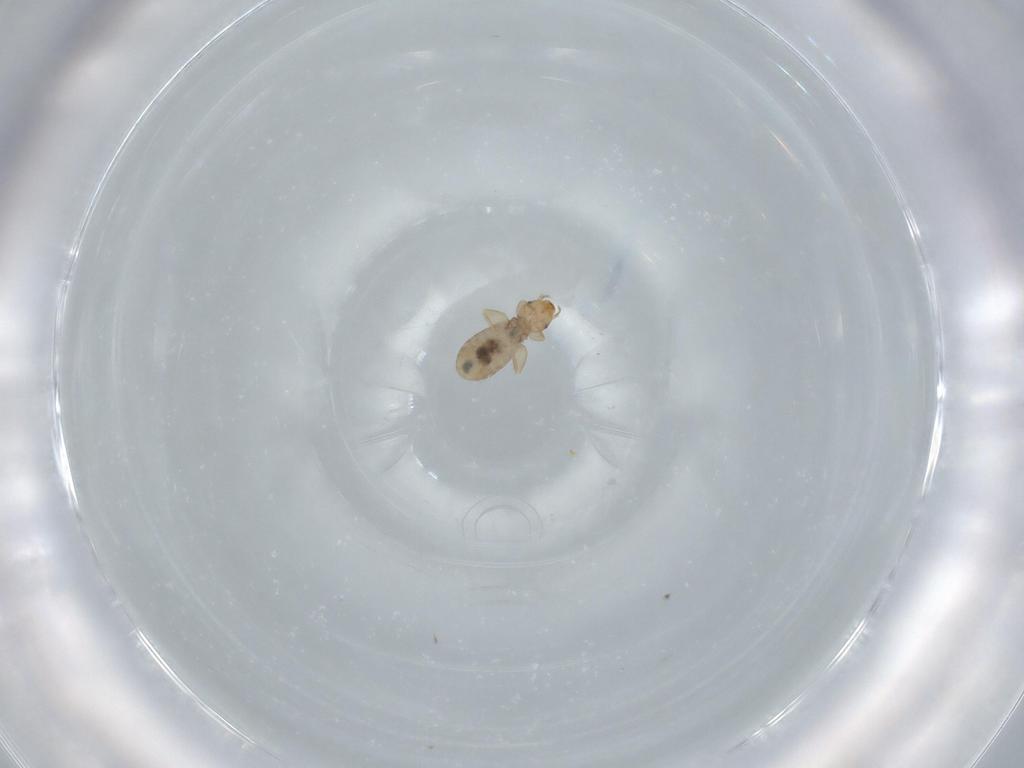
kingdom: Animalia
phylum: Arthropoda
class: Insecta
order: Psocodea
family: Liposcelididae
